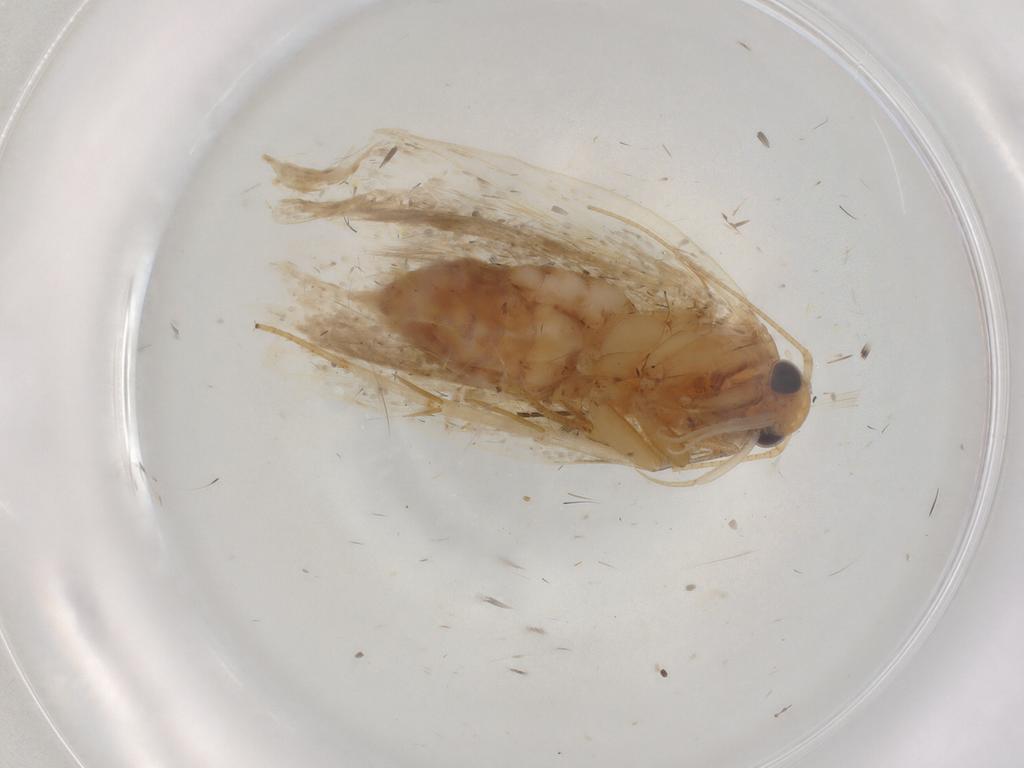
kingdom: Animalia
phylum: Arthropoda
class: Insecta
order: Lepidoptera
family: Depressariidae
